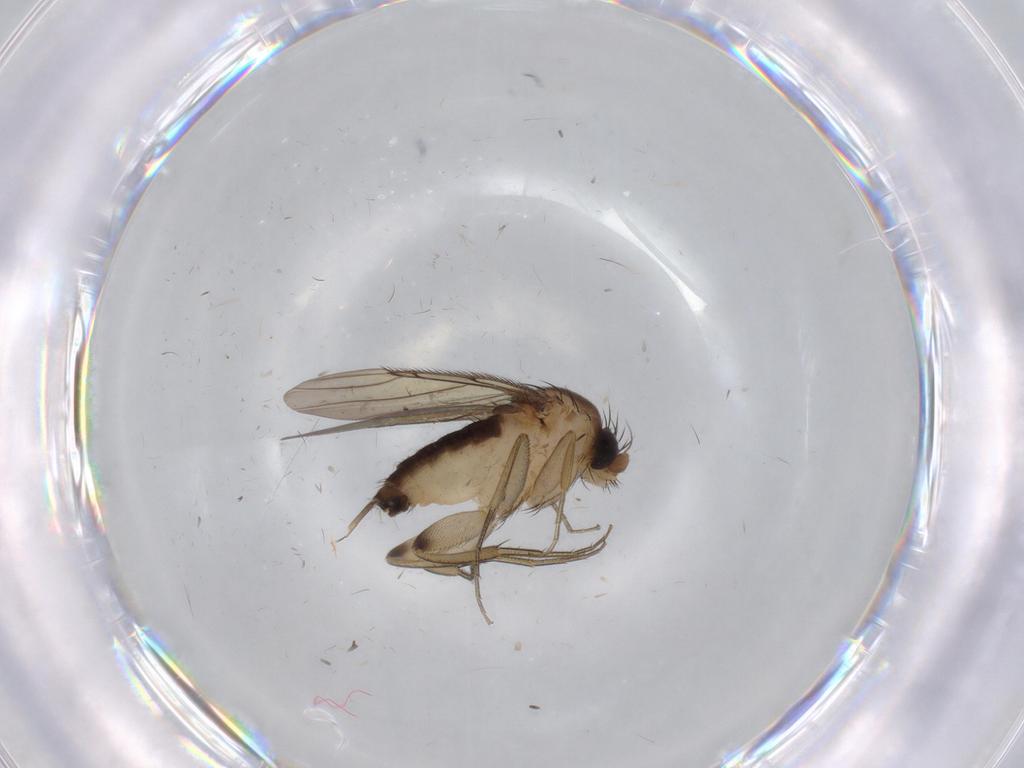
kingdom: Animalia
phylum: Arthropoda
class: Insecta
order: Diptera
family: Phoridae
